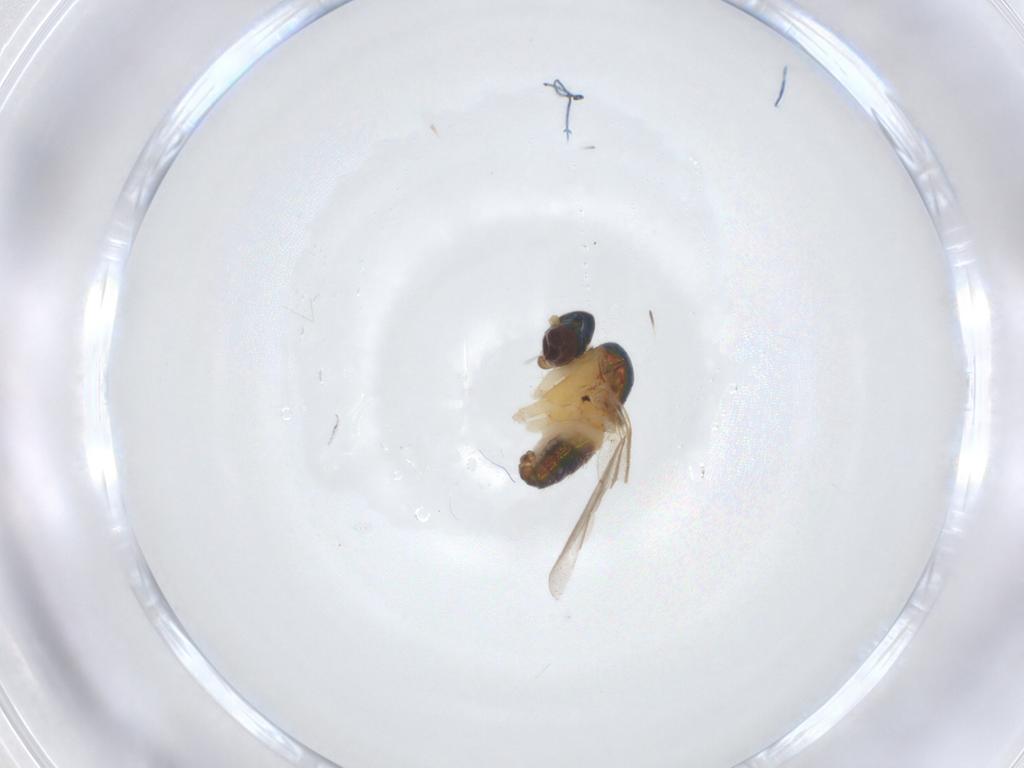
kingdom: Animalia
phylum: Arthropoda
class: Insecta
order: Diptera
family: Dolichopodidae
